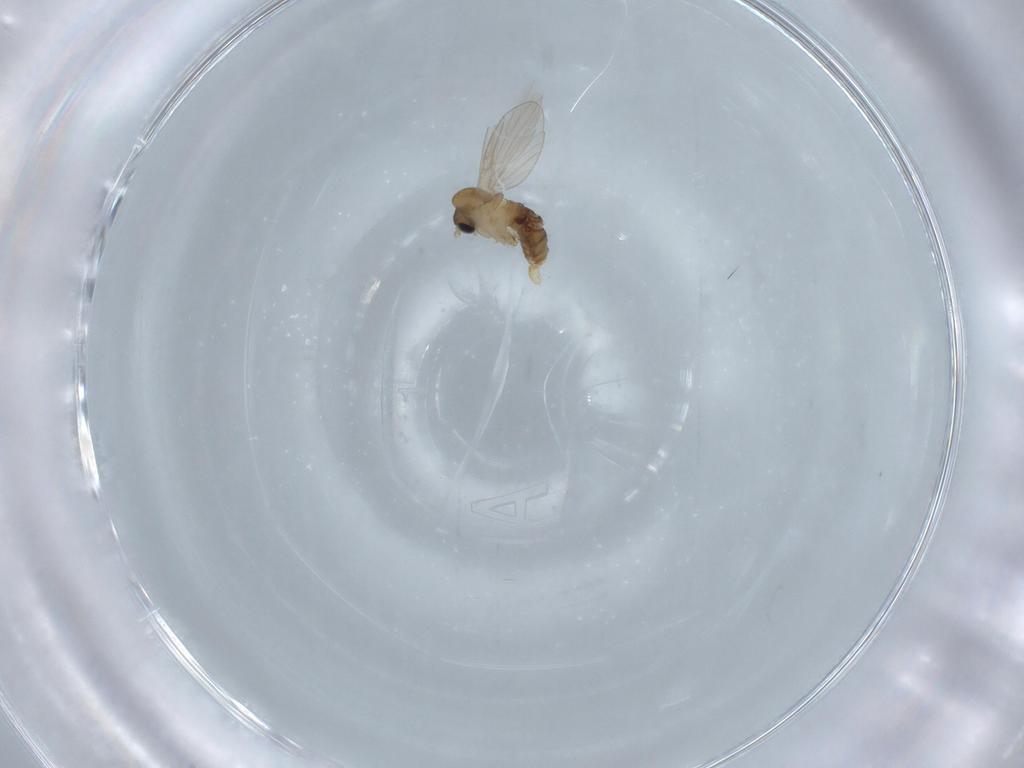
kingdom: Animalia
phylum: Arthropoda
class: Insecta
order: Diptera
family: Psychodidae
